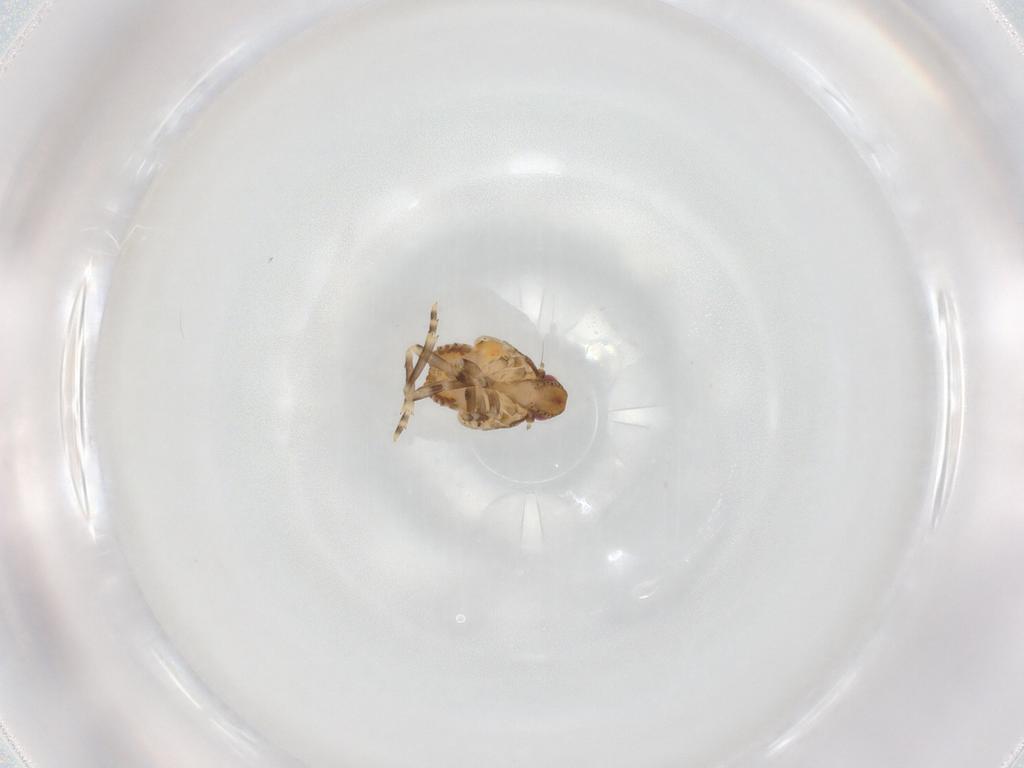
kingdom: Animalia
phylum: Arthropoda
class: Insecta
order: Hemiptera
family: Flatidae
